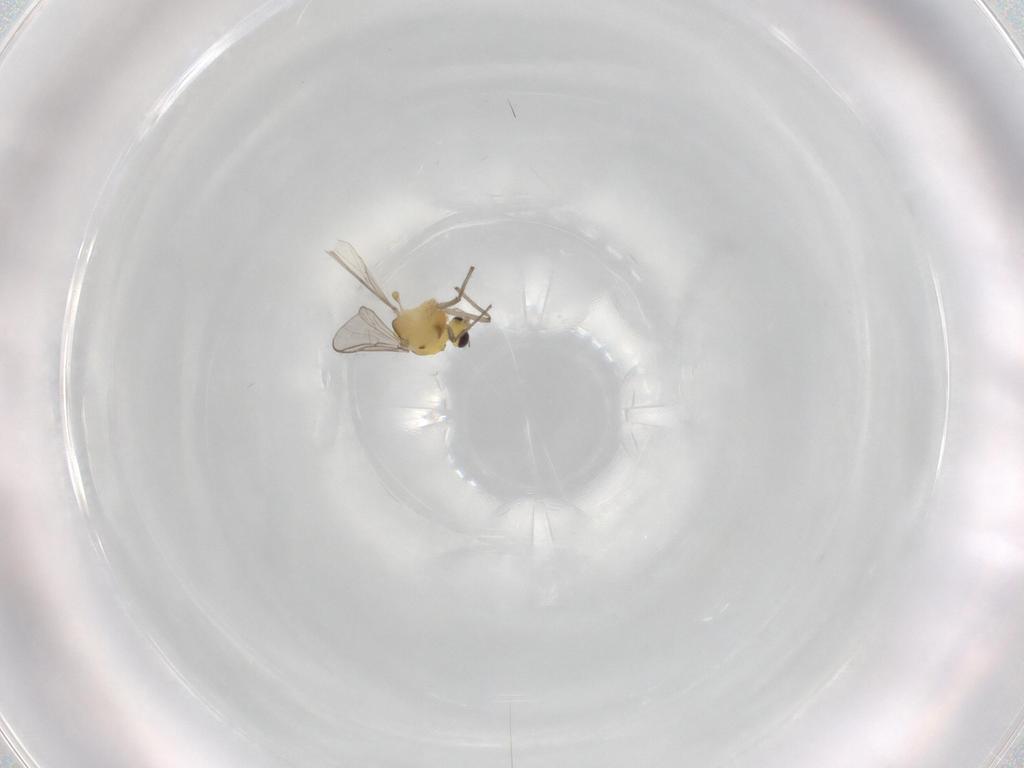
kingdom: Animalia
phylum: Arthropoda
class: Insecta
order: Diptera
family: Chironomidae
